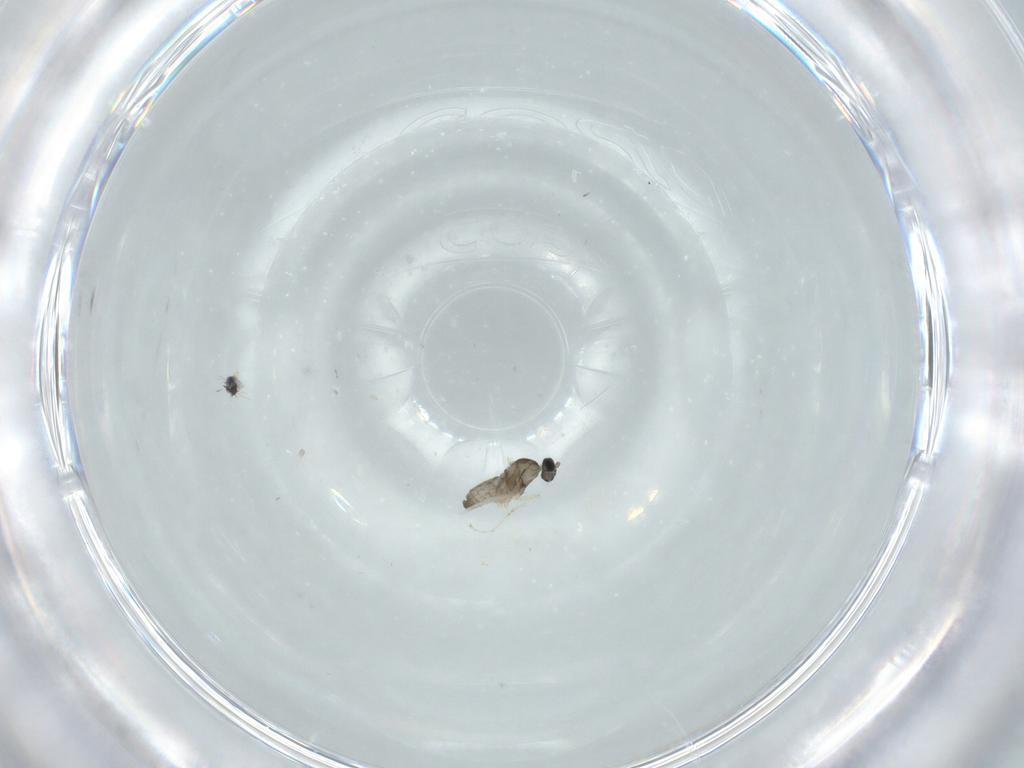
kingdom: Animalia
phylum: Arthropoda
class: Insecta
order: Diptera
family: Cecidomyiidae
